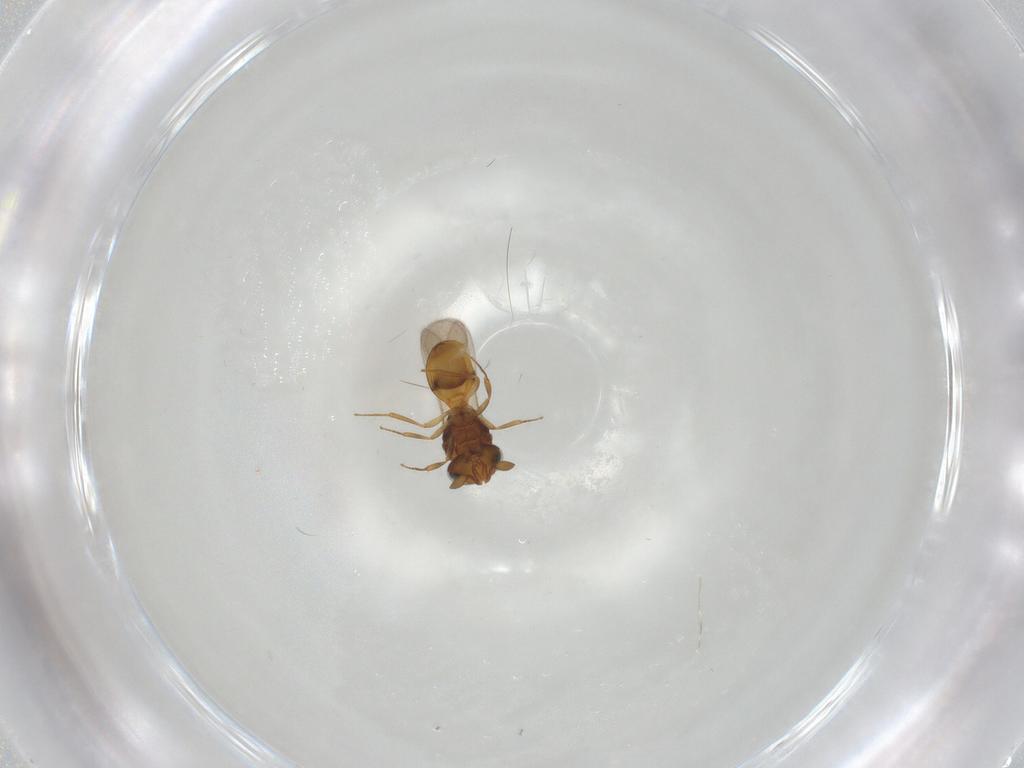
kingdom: Animalia
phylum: Arthropoda
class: Insecta
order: Hymenoptera
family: Scelionidae
